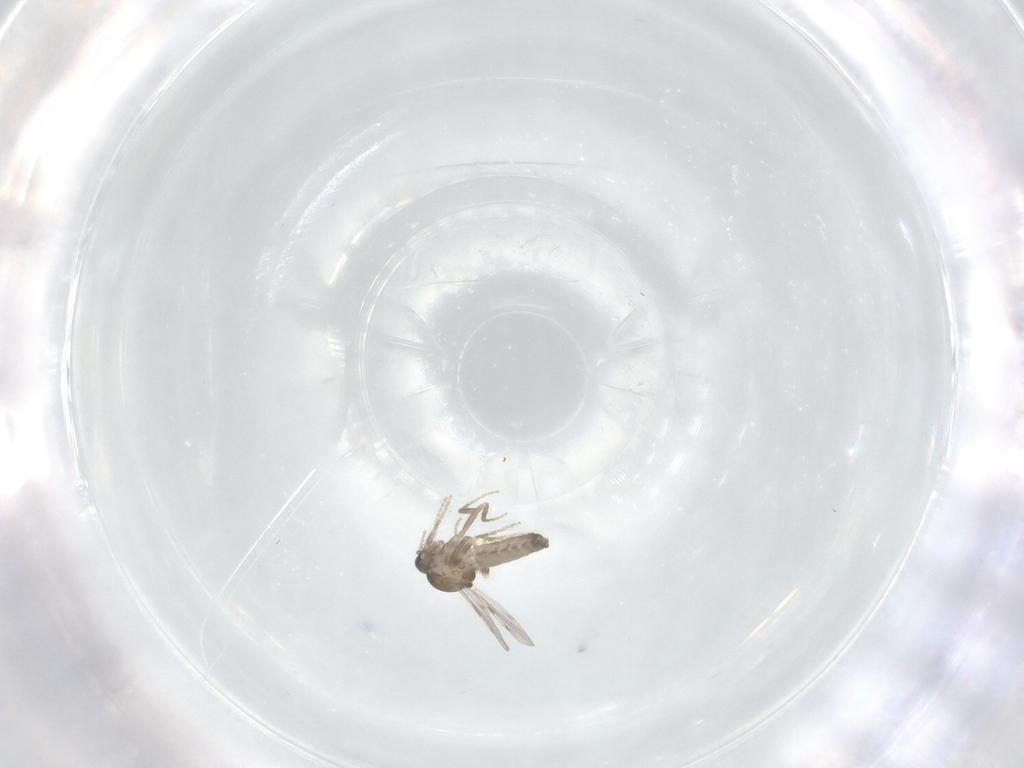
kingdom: Animalia
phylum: Arthropoda
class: Insecta
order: Diptera
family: Ceratopogonidae
